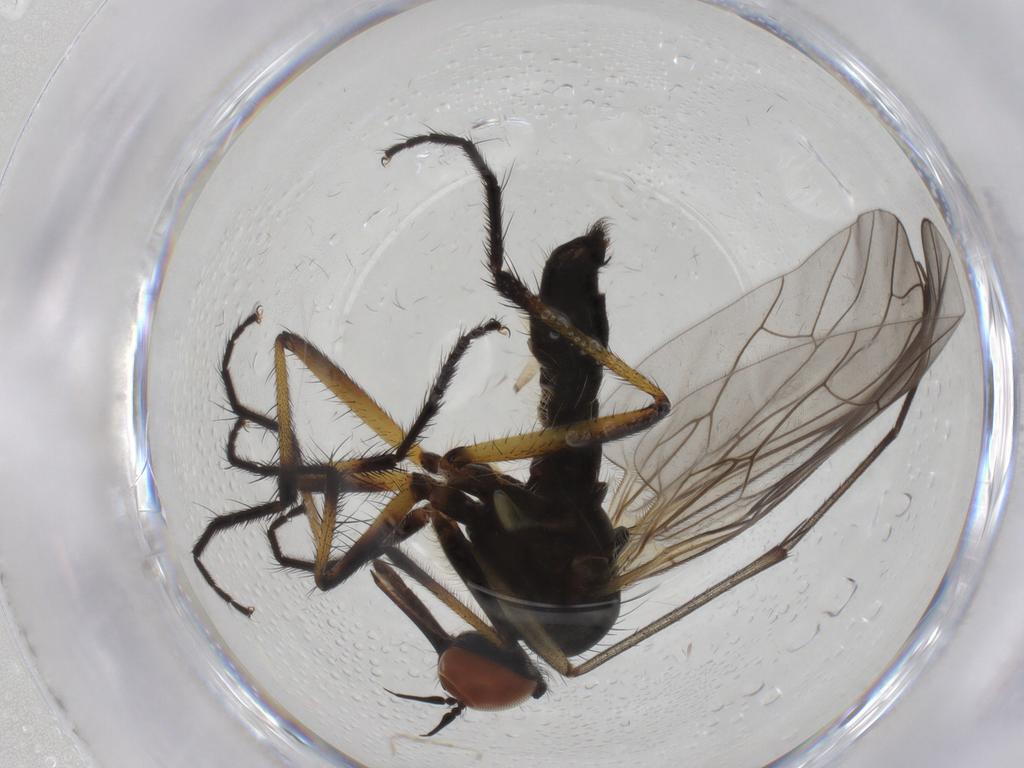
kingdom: Animalia
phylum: Arthropoda
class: Insecta
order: Diptera
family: Empididae
